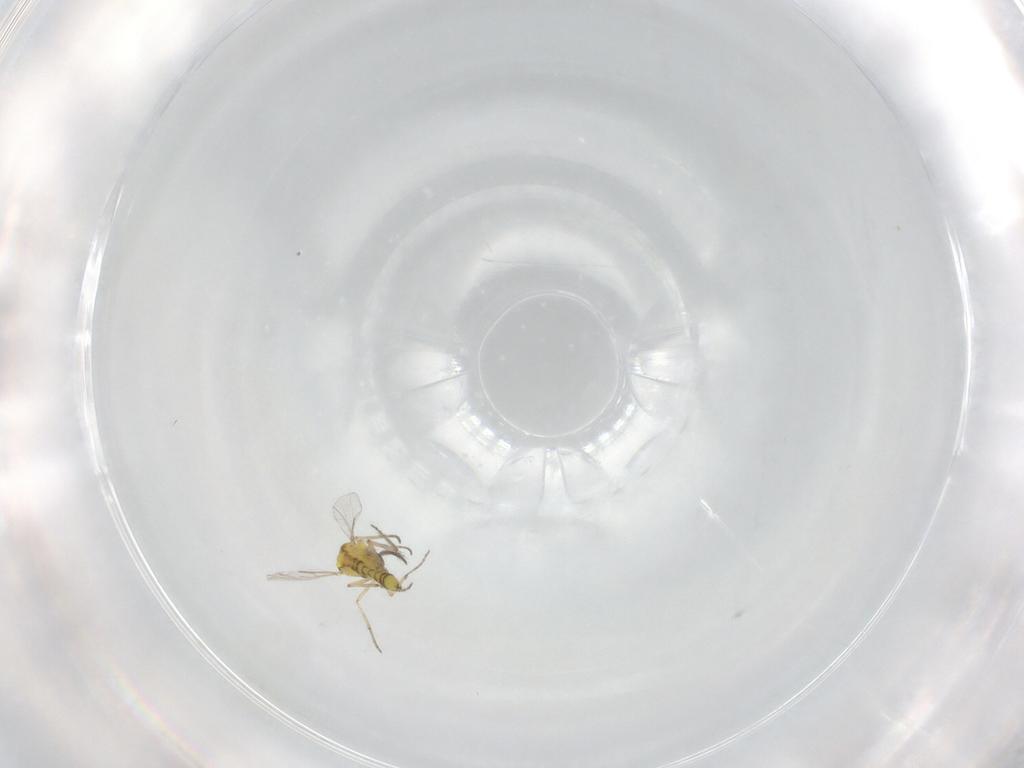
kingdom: Animalia
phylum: Arthropoda
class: Insecta
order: Diptera
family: Ceratopogonidae
